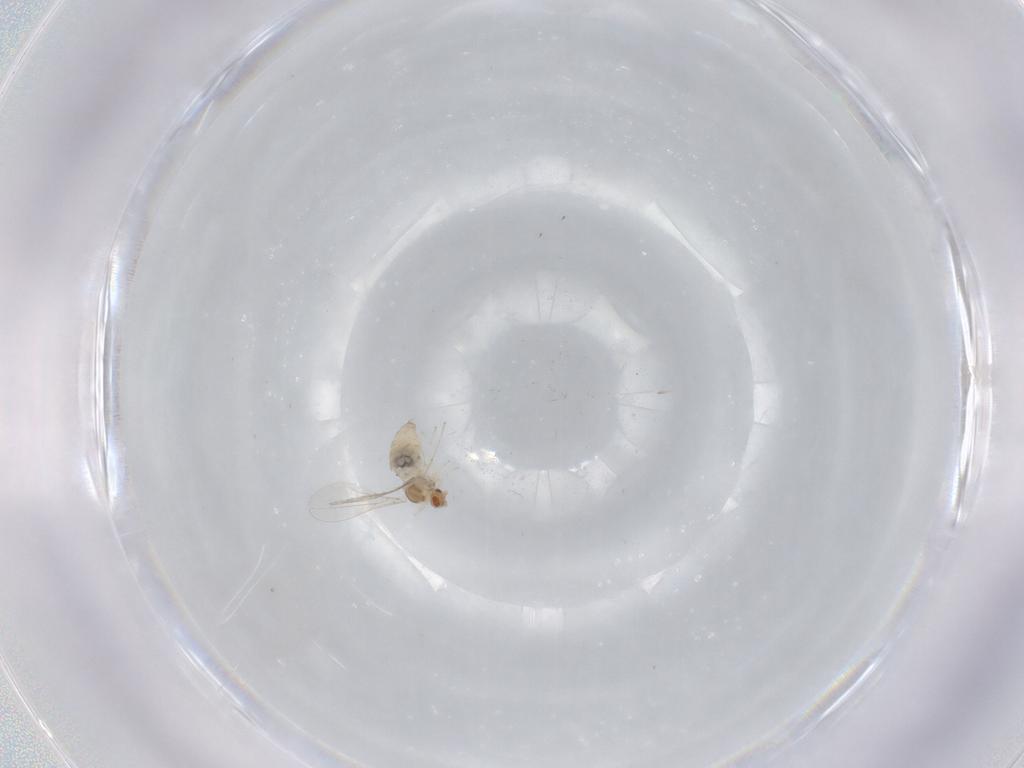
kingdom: Animalia
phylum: Arthropoda
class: Insecta
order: Diptera
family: Cecidomyiidae
